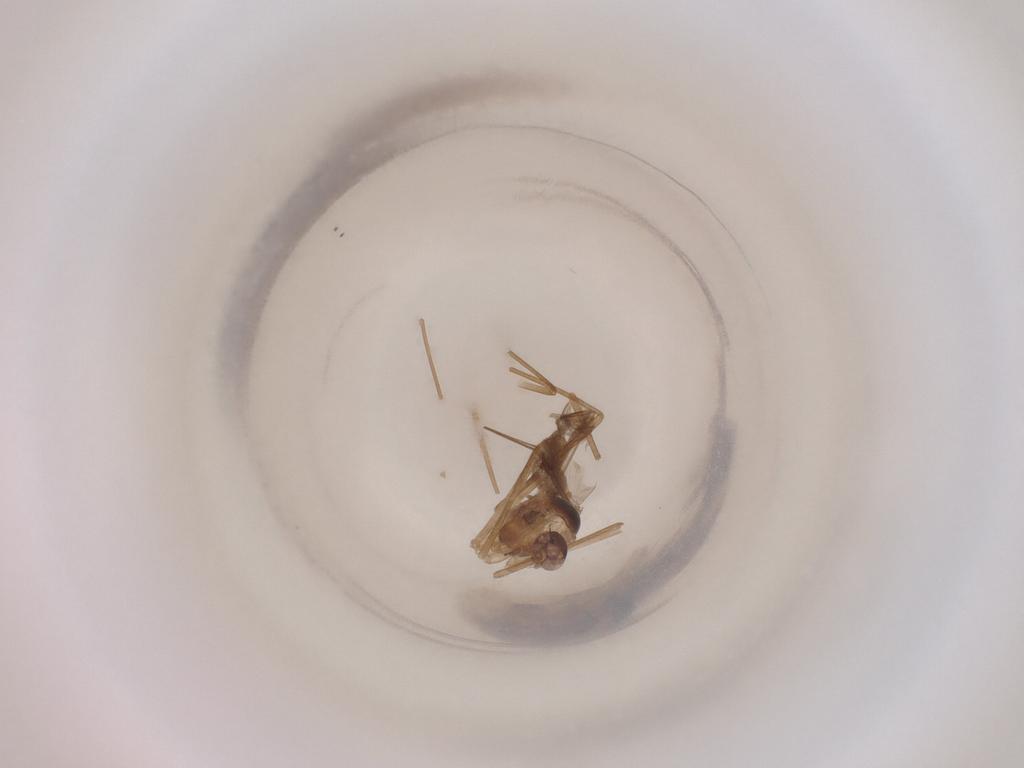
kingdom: Animalia
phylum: Arthropoda
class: Insecta
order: Diptera
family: Cecidomyiidae
